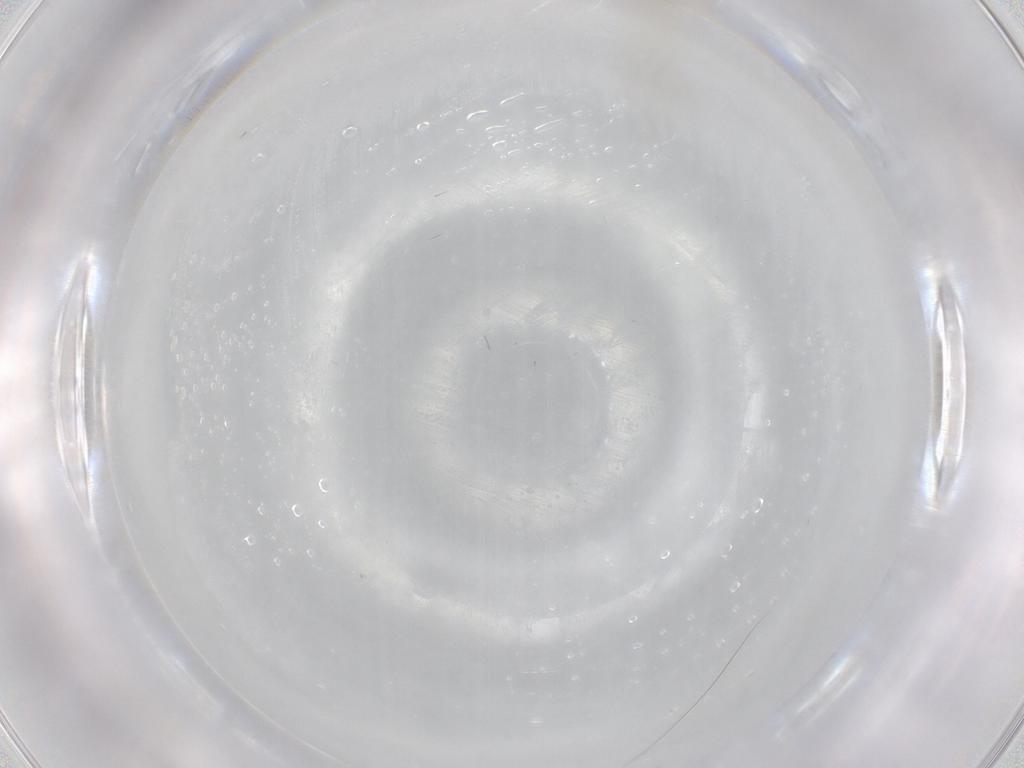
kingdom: Animalia
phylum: Arthropoda
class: Insecta
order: Diptera
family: Cecidomyiidae
